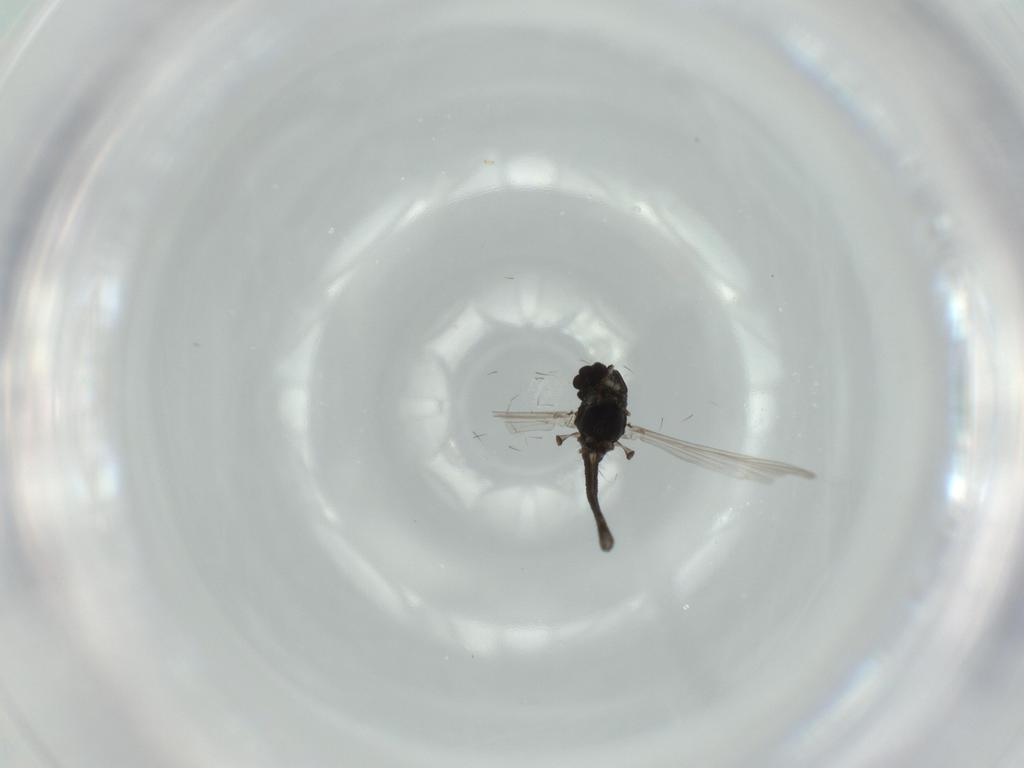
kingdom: Animalia
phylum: Arthropoda
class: Insecta
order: Diptera
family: Chironomidae
